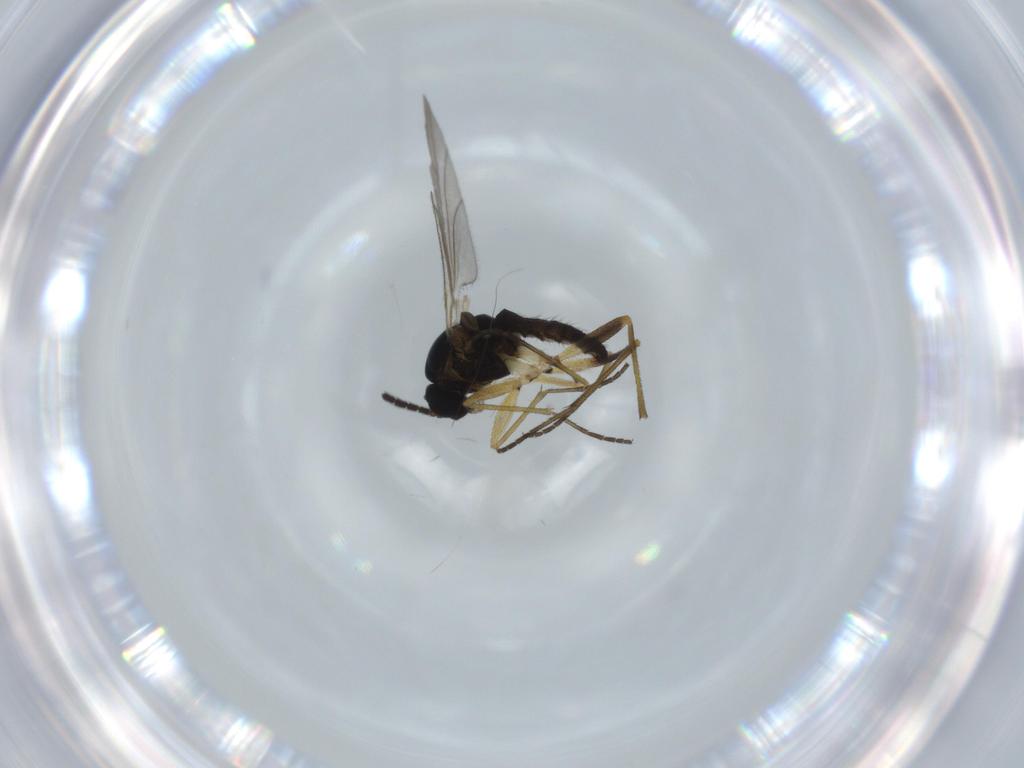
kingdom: Animalia
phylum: Arthropoda
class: Insecta
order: Diptera
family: Sciaridae
